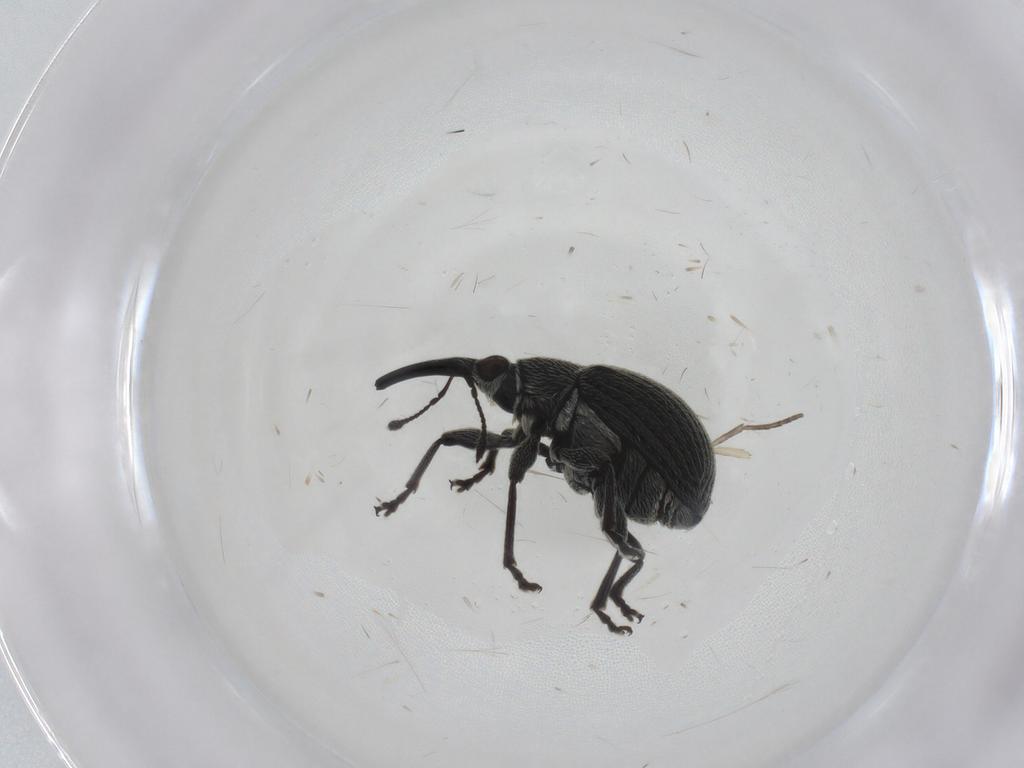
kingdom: Animalia
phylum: Arthropoda
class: Insecta
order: Coleoptera
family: Brentidae
